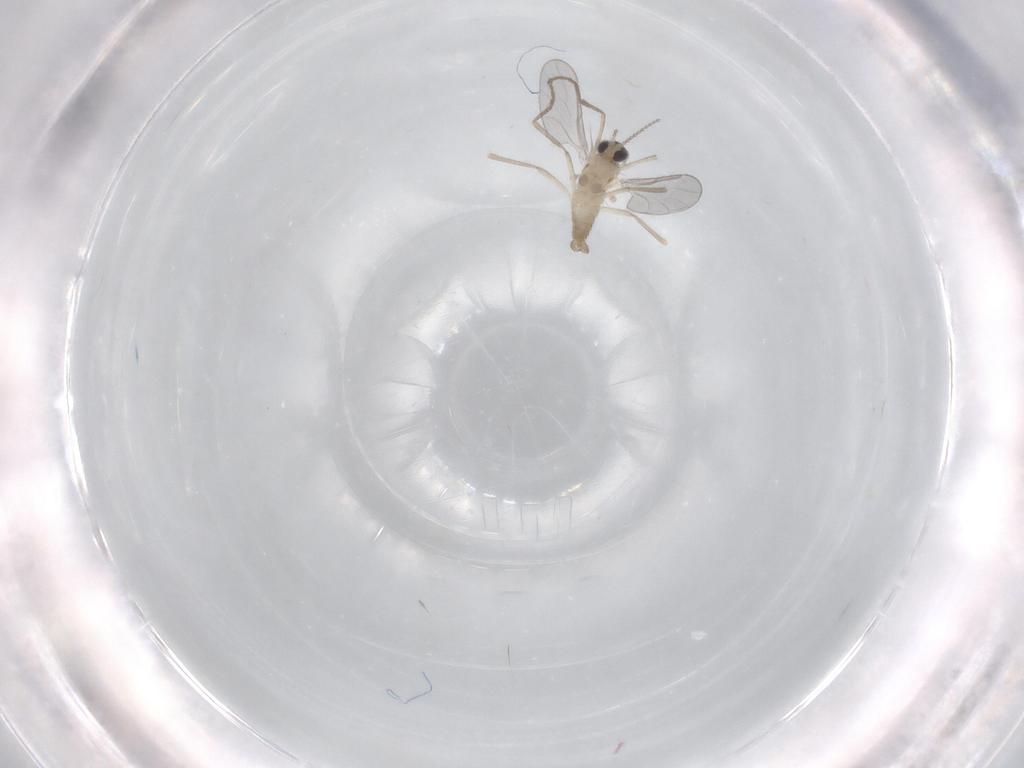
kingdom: Animalia
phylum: Arthropoda
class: Insecta
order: Diptera
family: Cecidomyiidae
